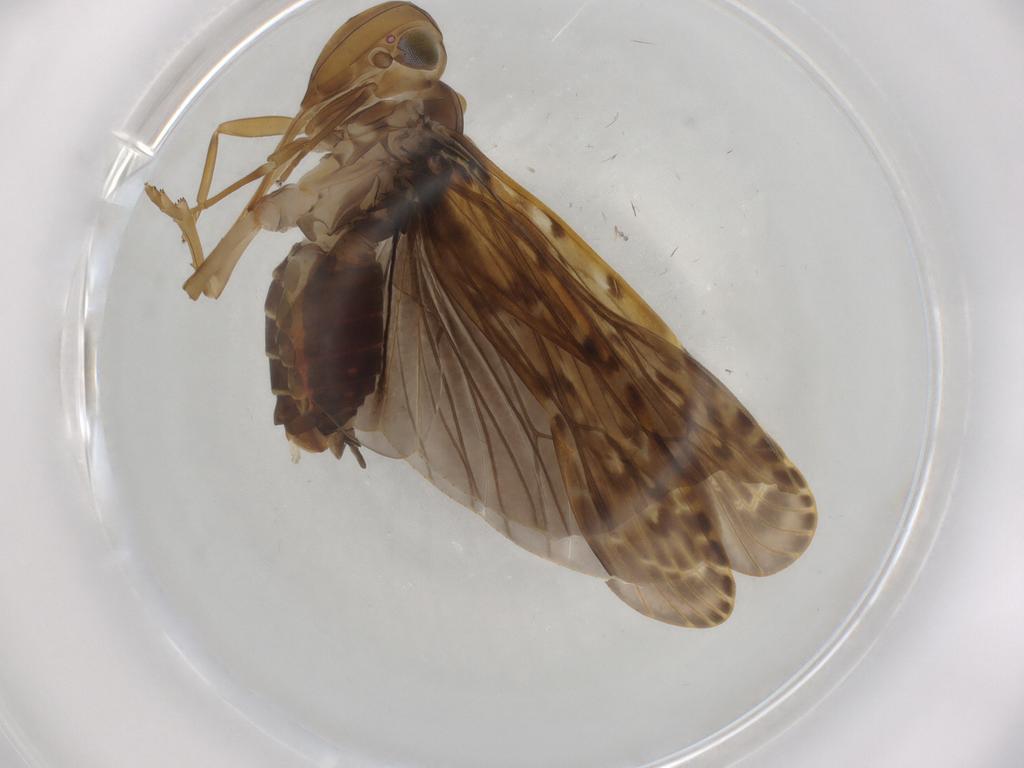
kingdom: Animalia
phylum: Arthropoda
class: Insecta
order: Hemiptera
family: Achilidae
